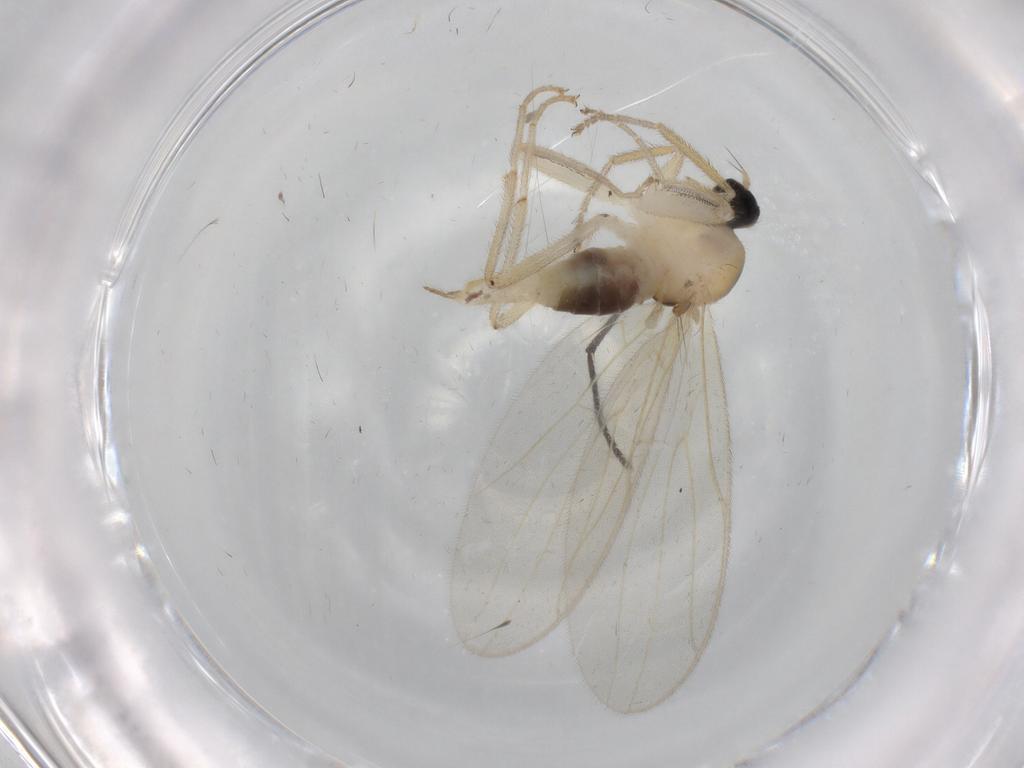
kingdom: Animalia
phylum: Arthropoda
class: Insecta
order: Diptera
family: Hybotidae
